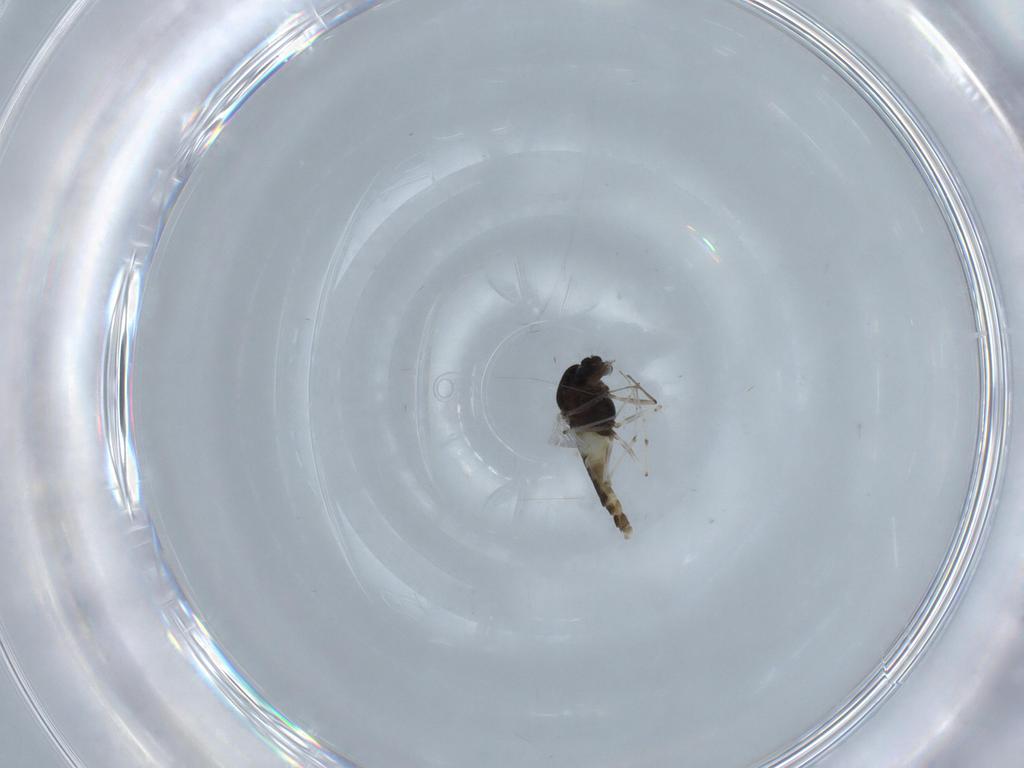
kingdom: Animalia
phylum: Arthropoda
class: Insecta
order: Diptera
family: Chironomidae
